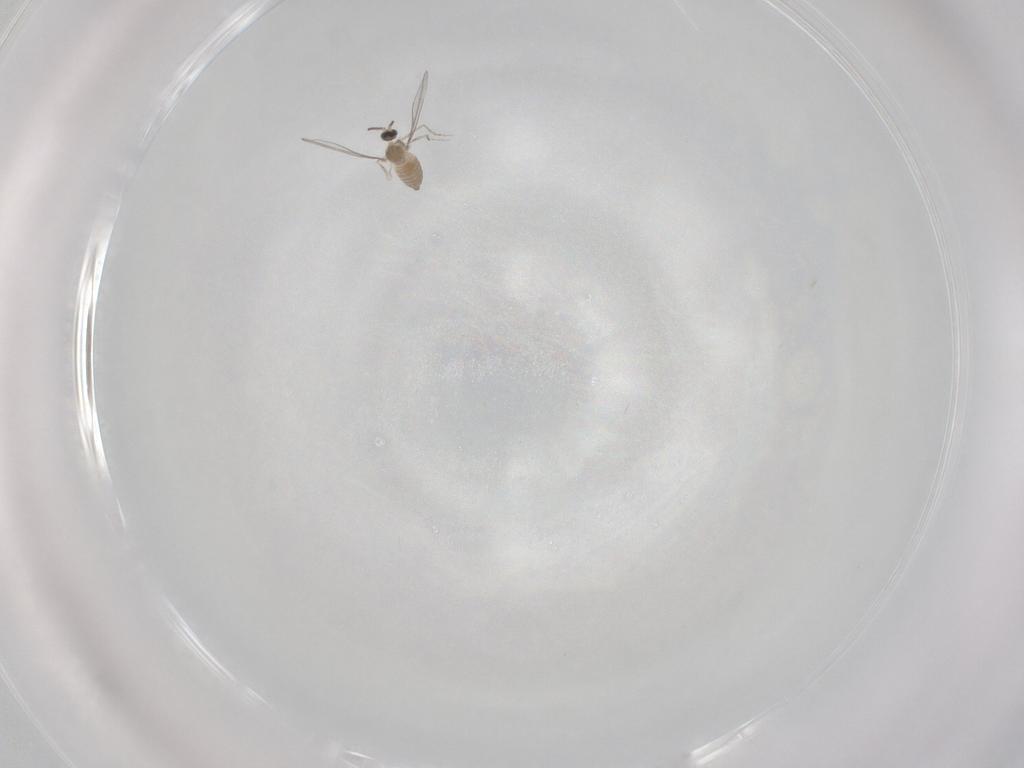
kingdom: Animalia
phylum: Arthropoda
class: Insecta
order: Diptera
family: Cecidomyiidae
